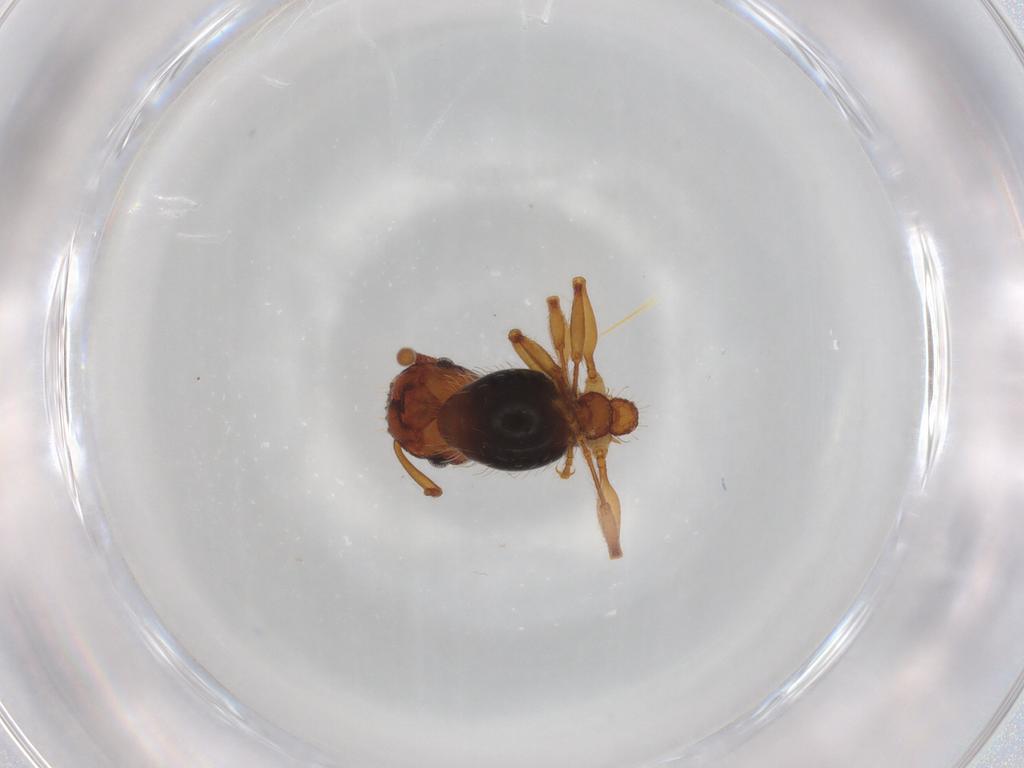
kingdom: Animalia
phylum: Arthropoda
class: Insecta
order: Hymenoptera
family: Formicidae
